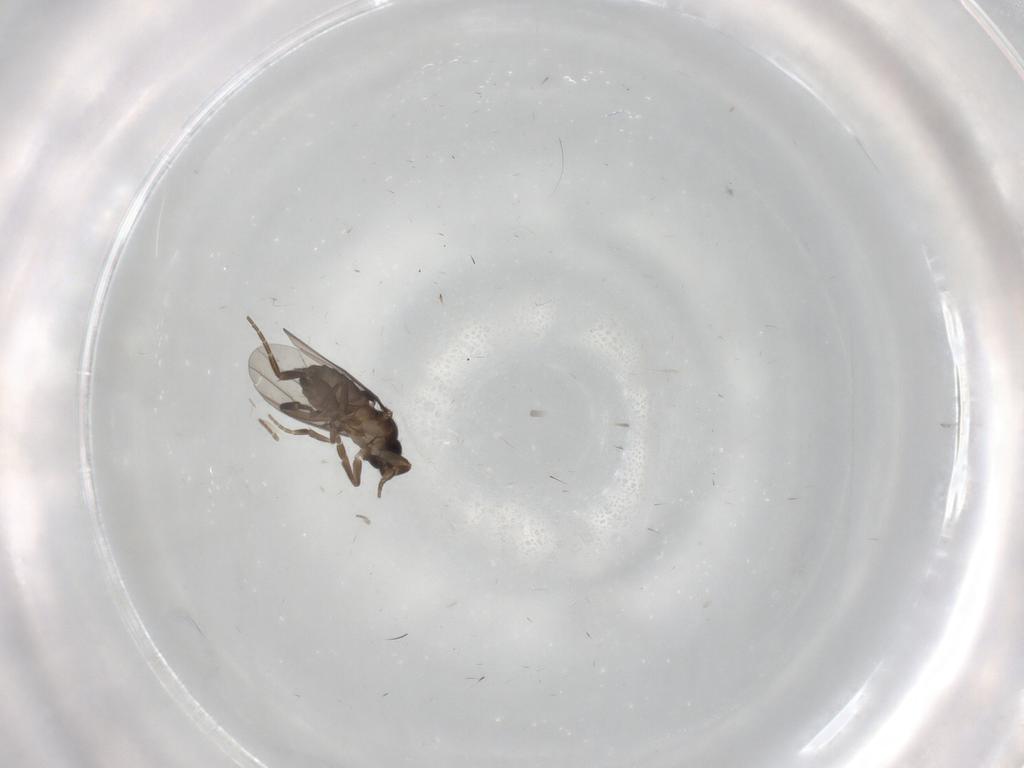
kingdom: Animalia
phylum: Arthropoda
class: Insecta
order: Diptera
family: Phoridae
